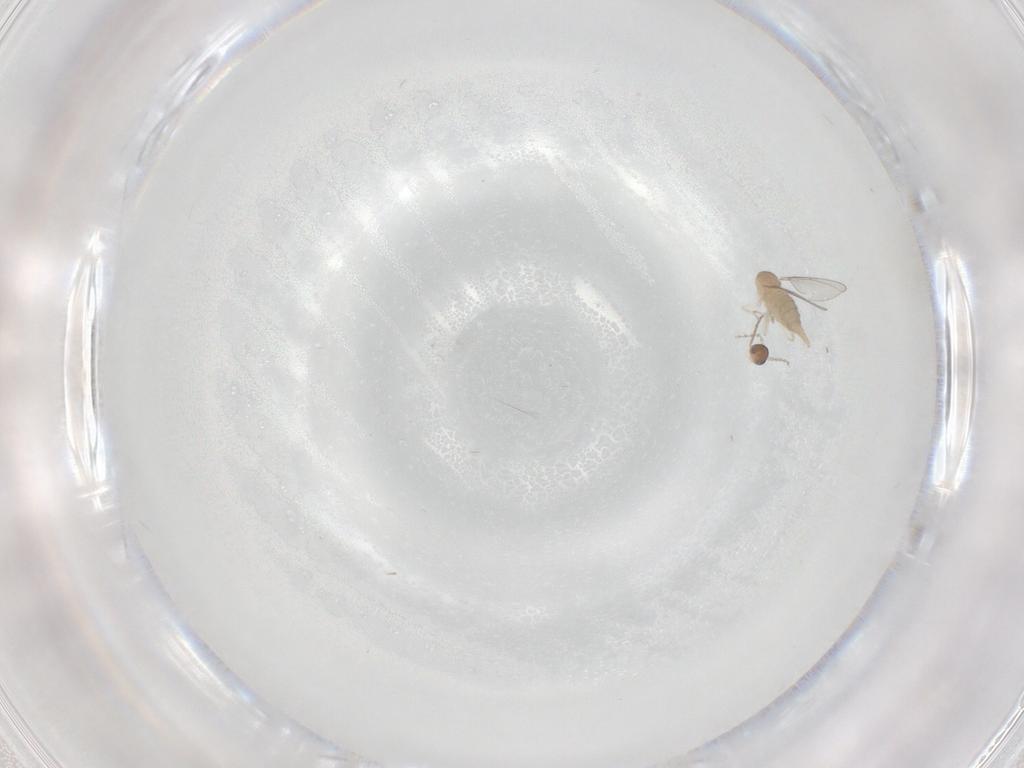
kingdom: Animalia
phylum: Arthropoda
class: Insecta
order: Diptera
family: Cecidomyiidae
